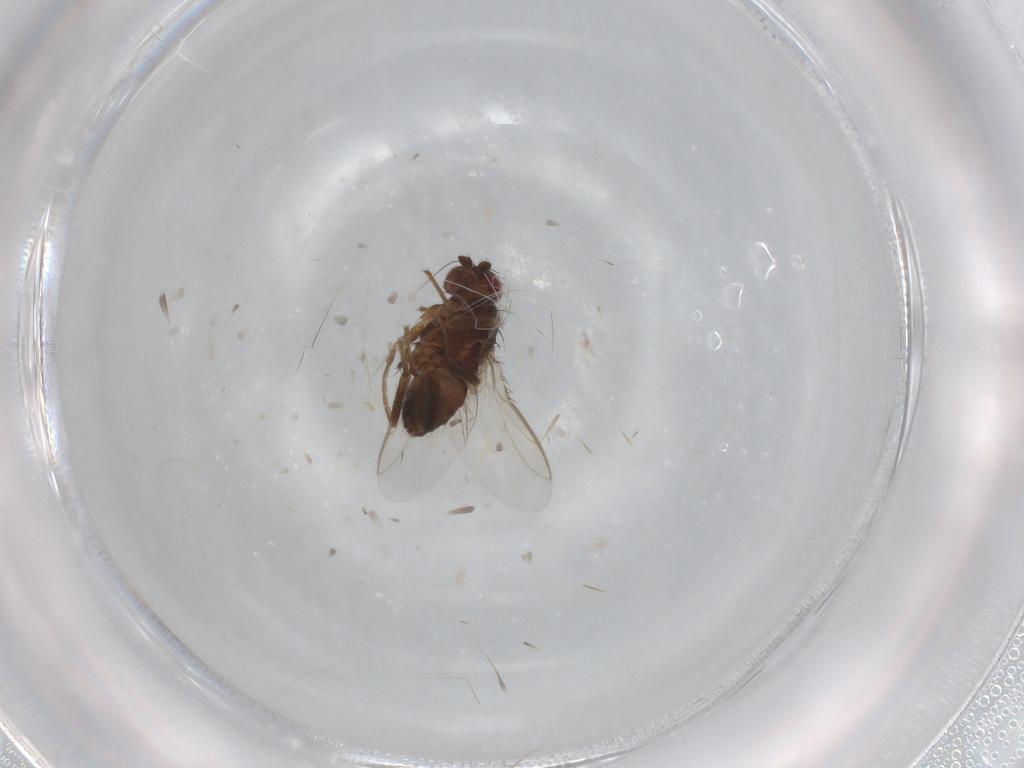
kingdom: Animalia
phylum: Arthropoda
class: Insecta
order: Diptera
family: Sphaeroceridae
